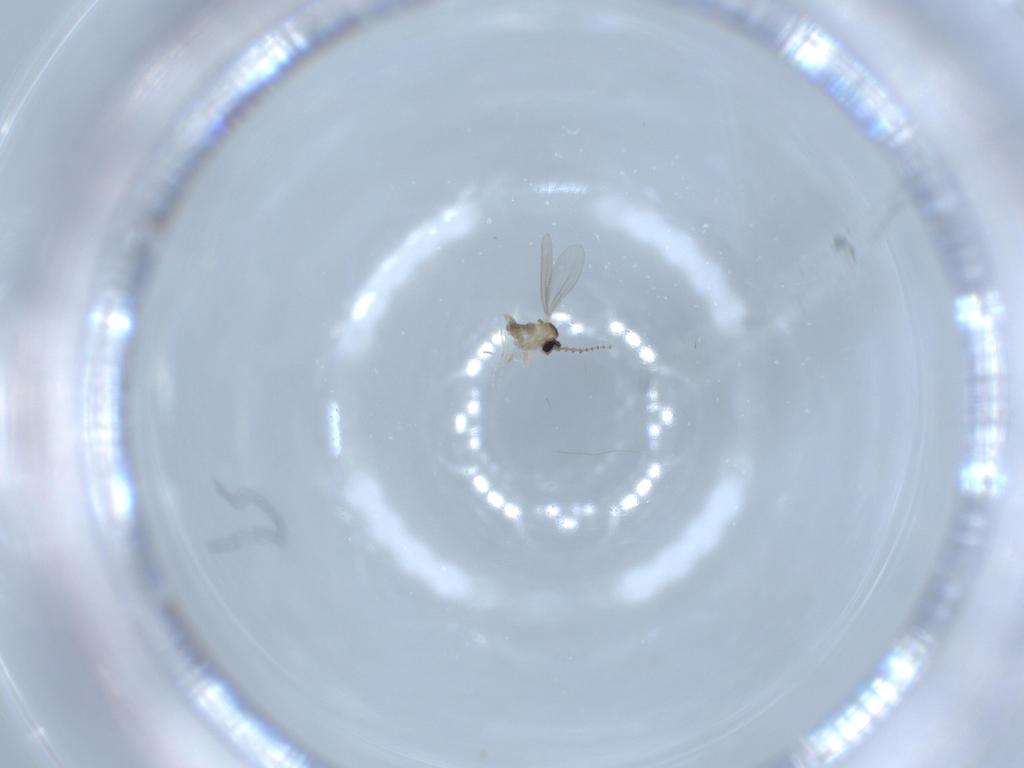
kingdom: Animalia
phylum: Arthropoda
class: Insecta
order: Diptera
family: Cecidomyiidae
